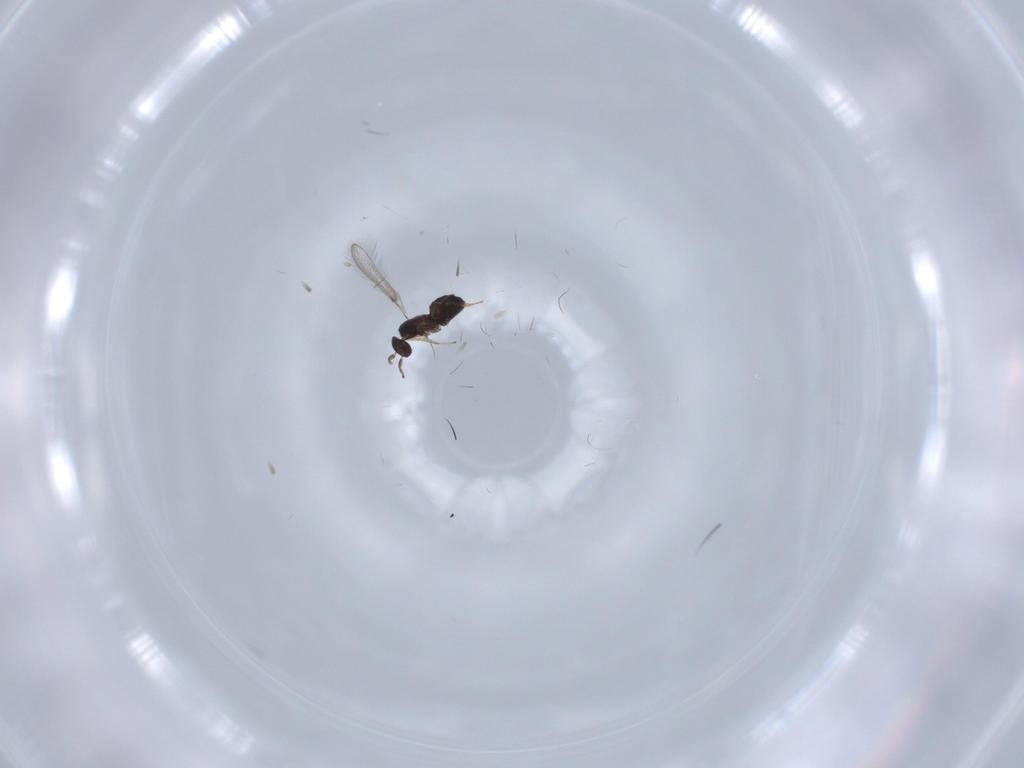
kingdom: Animalia
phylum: Arthropoda
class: Insecta
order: Hymenoptera
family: Mymaridae
